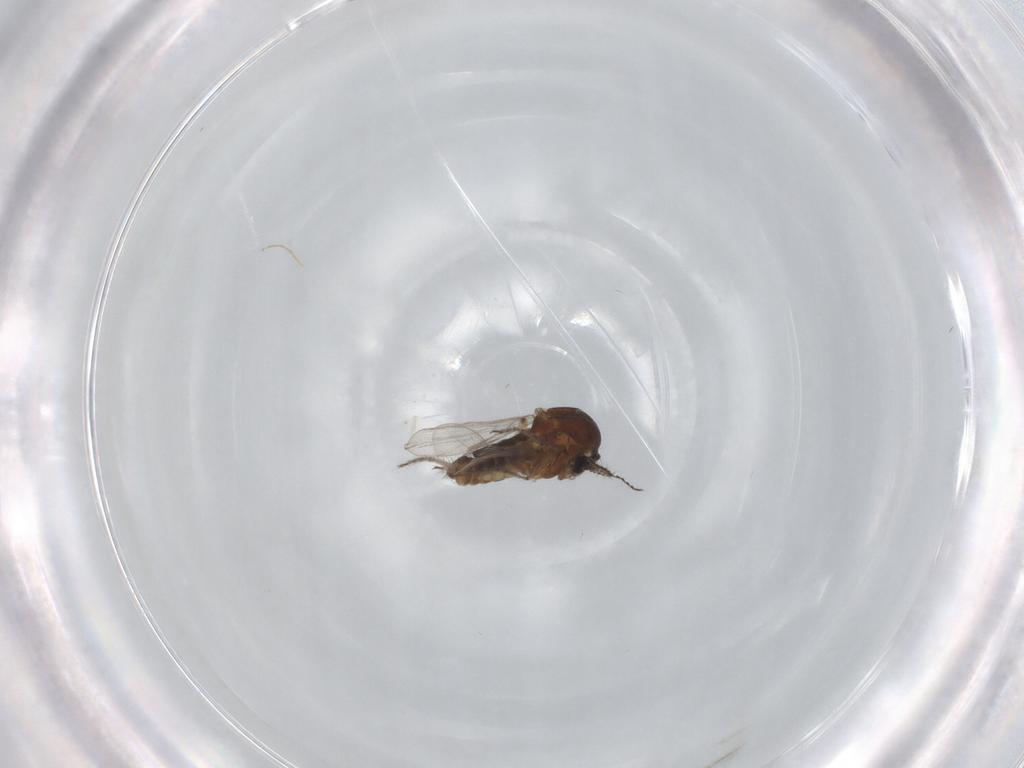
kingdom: Animalia
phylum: Arthropoda
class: Insecta
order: Diptera
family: Ceratopogonidae
